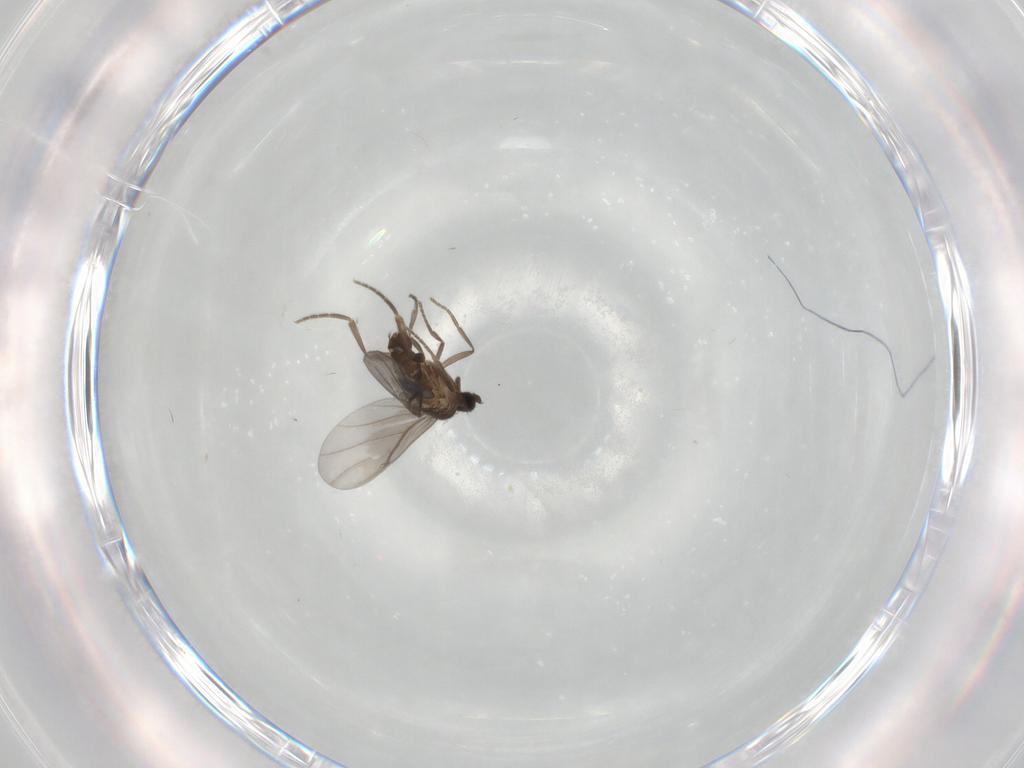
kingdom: Animalia
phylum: Arthropoda
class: Insecta
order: Diptera
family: Phoridae
